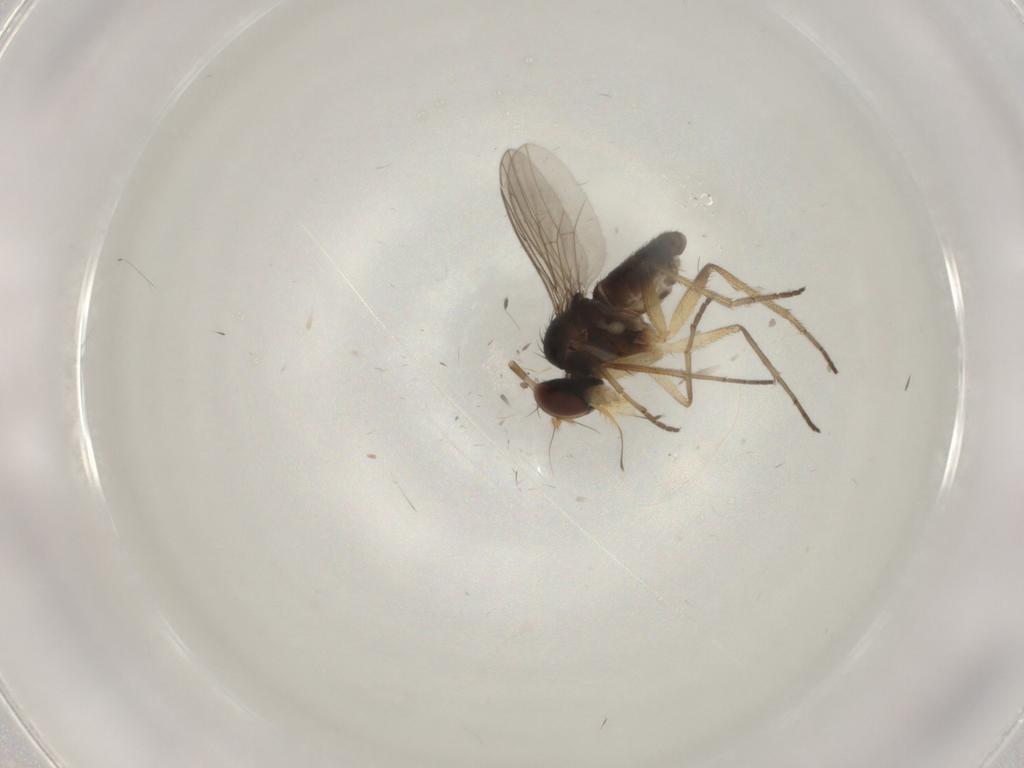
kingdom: Animalia
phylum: Arthropoda
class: Insecta
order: Diptera
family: Dolichopodidae
